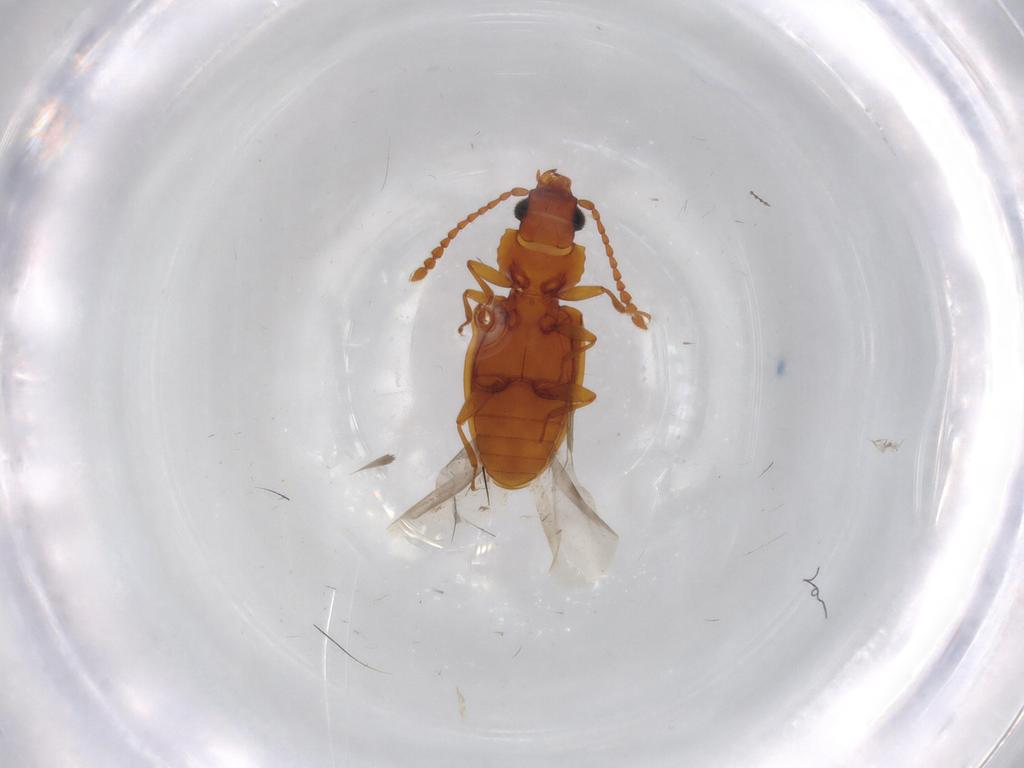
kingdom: Animalia
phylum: Arthropoda
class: Insecta
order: Coleoptera
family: Laemophloeidae
